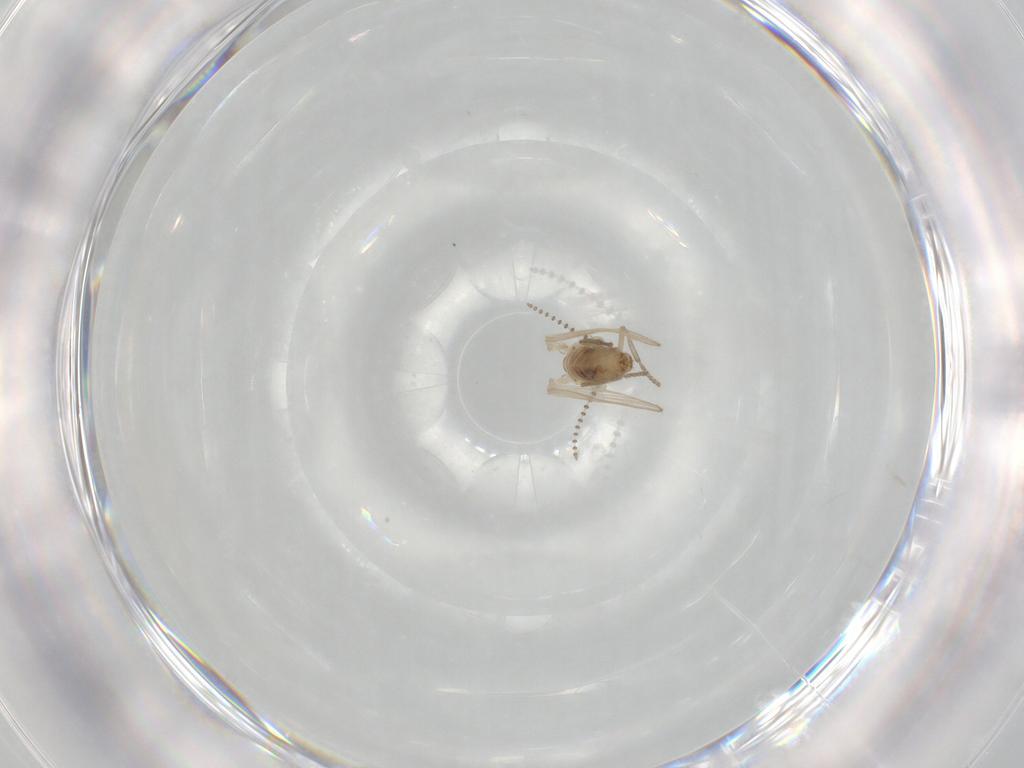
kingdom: Animalia
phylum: Arthropoda
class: Insecta
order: Diptera
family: Psychodidae
